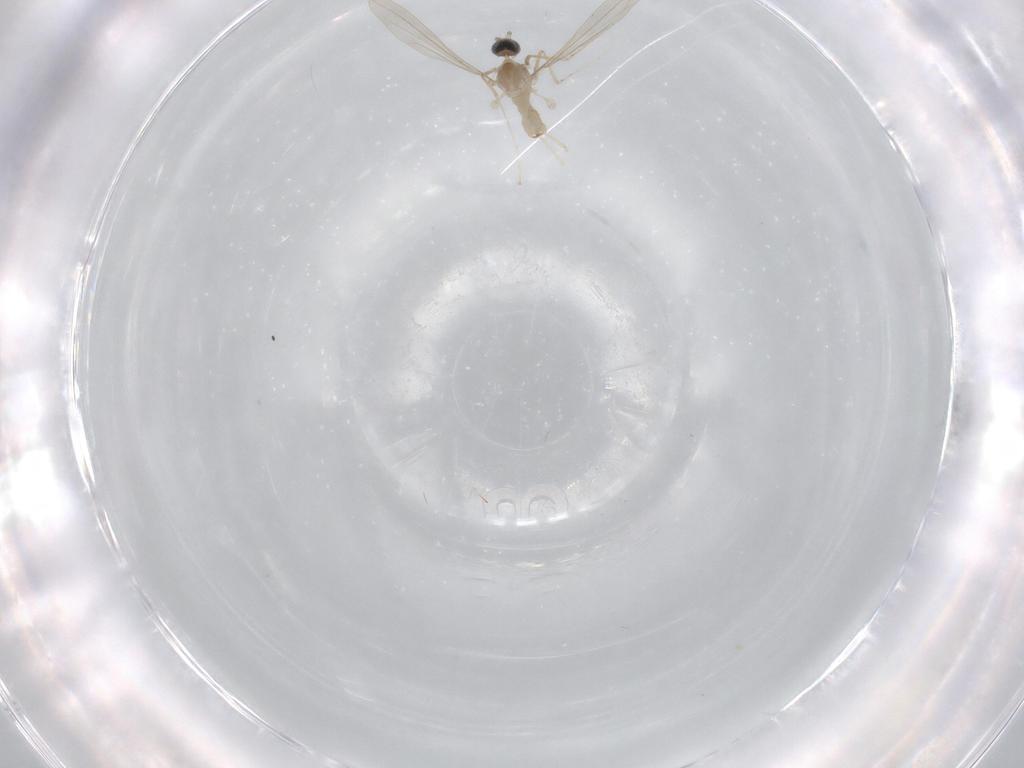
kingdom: Animalia
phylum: Arthropoda
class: Insecta
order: Diptera
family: Cecidomyiidae
